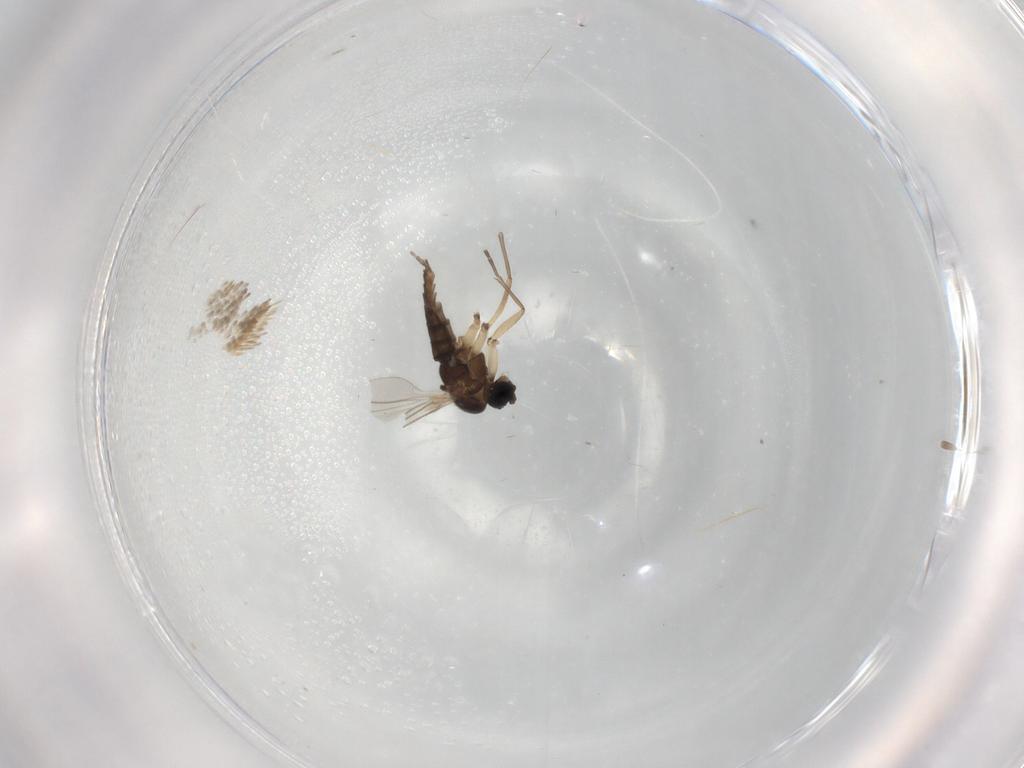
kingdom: Animalia
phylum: Arthropoda
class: Insecta
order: Diptera
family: Sciaridae
